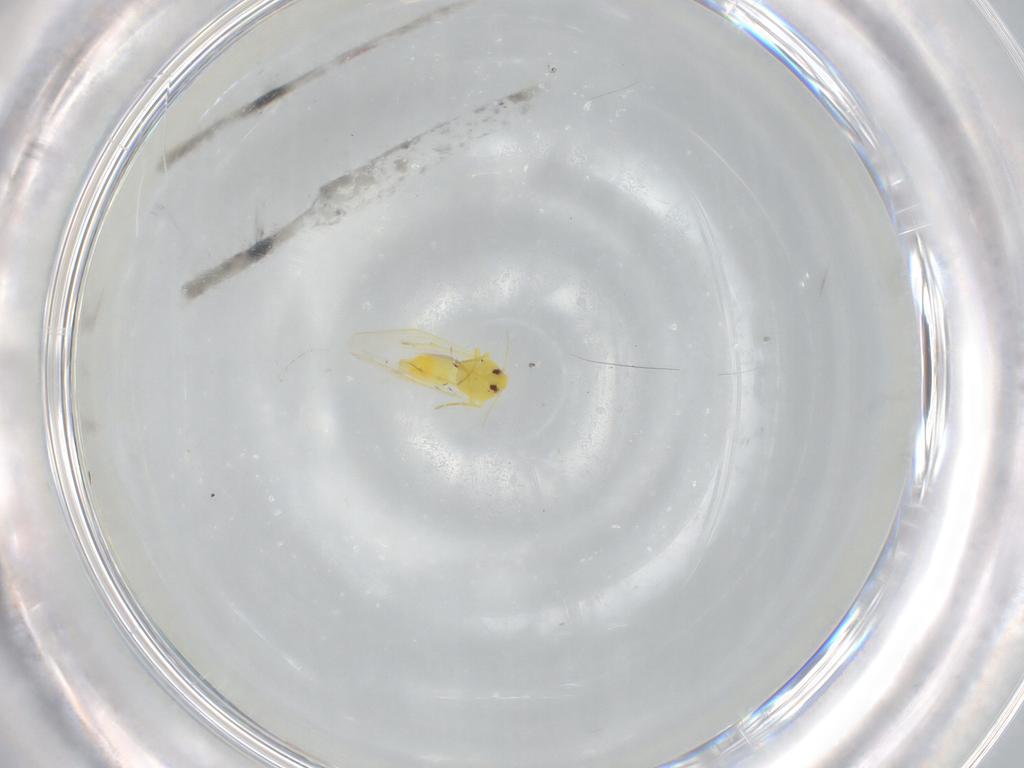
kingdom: Animalia
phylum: Arthropoda
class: Insecta
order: Hemiptera
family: Aleyrodidae
